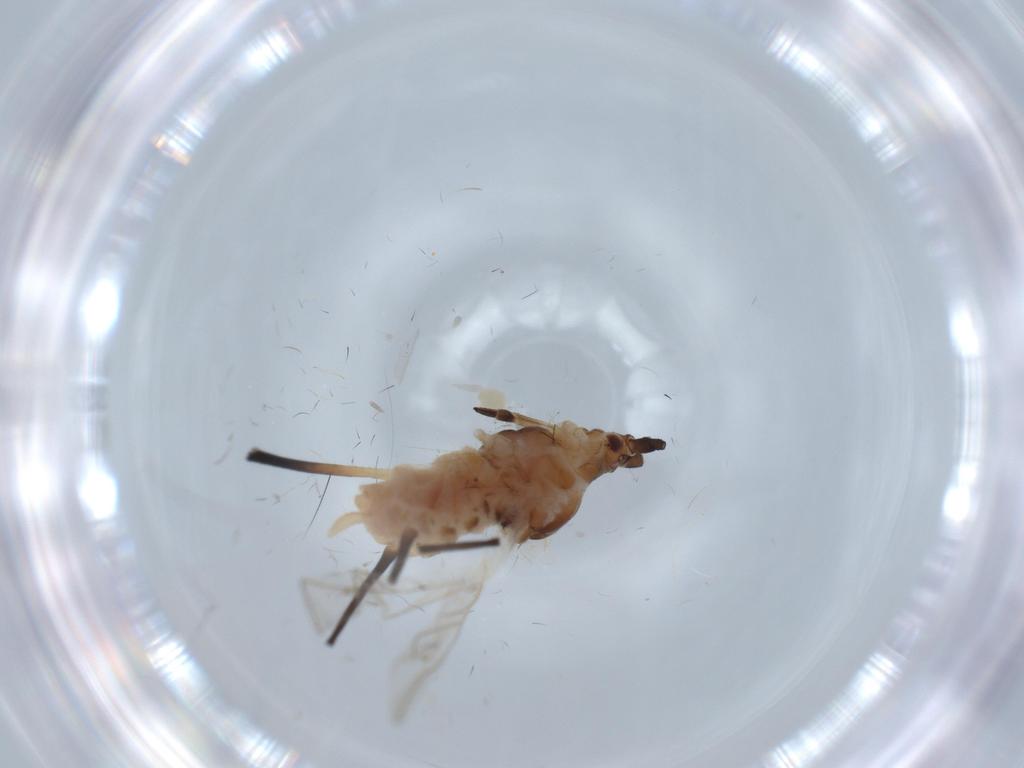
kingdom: Animalia
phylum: Arthropoda
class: Insecta
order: Hemiptera
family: Aphididae
